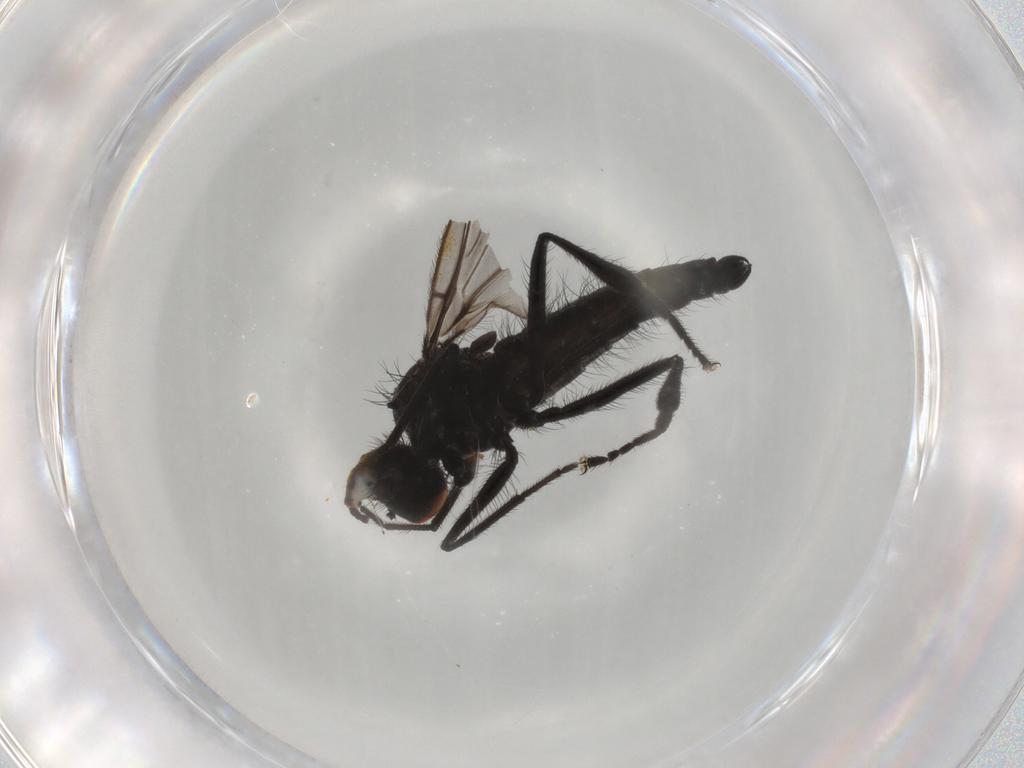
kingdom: Animalia
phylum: Arthropoda
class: Insecta
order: Diptera
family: Hybotidae
